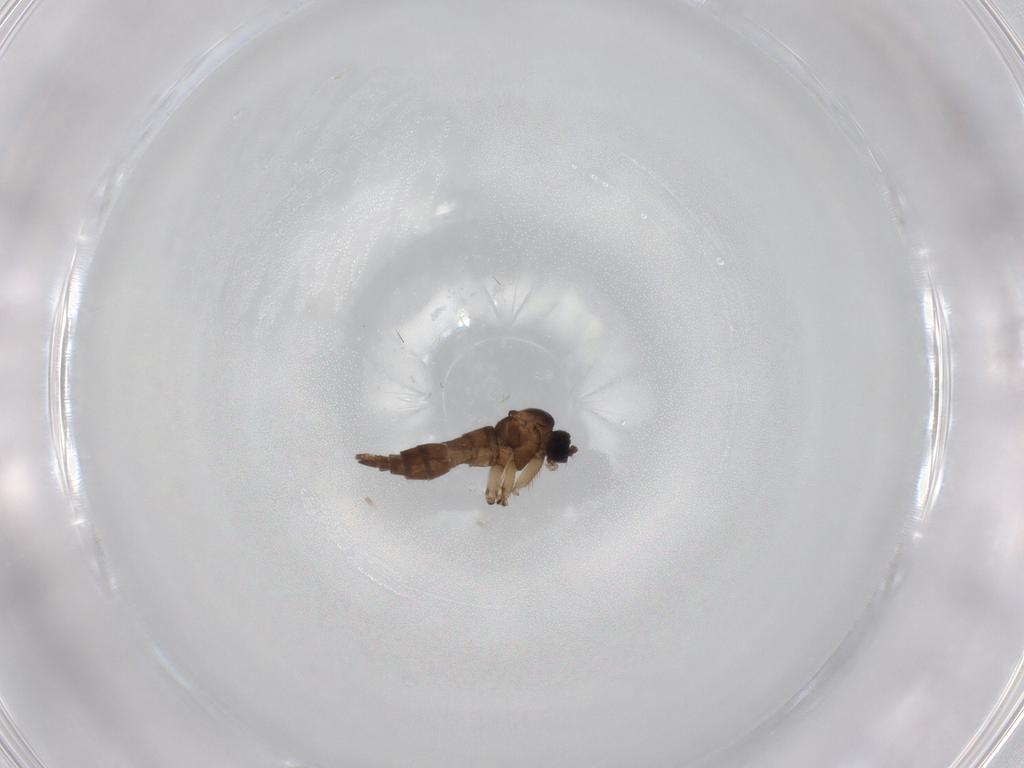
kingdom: Animalia
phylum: Arthropoda
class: Insecta
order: Diptera
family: Muscidae
